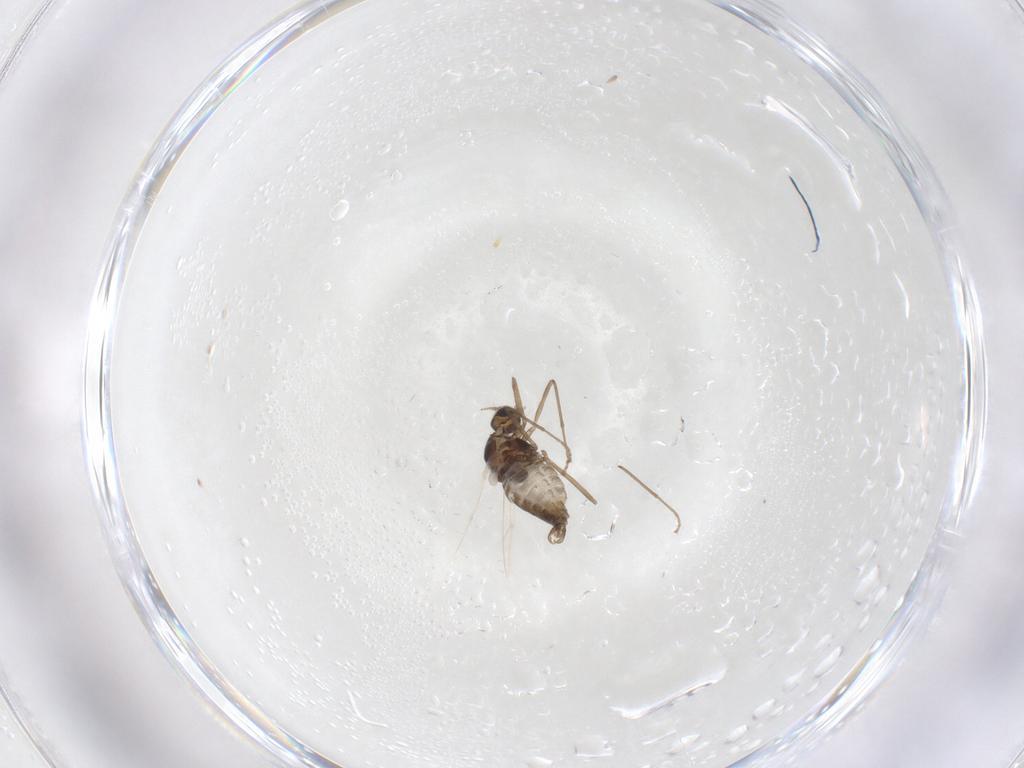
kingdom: Animalia
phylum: Arthropoda
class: Insecta
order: Diptera
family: Cecidomyiidae
